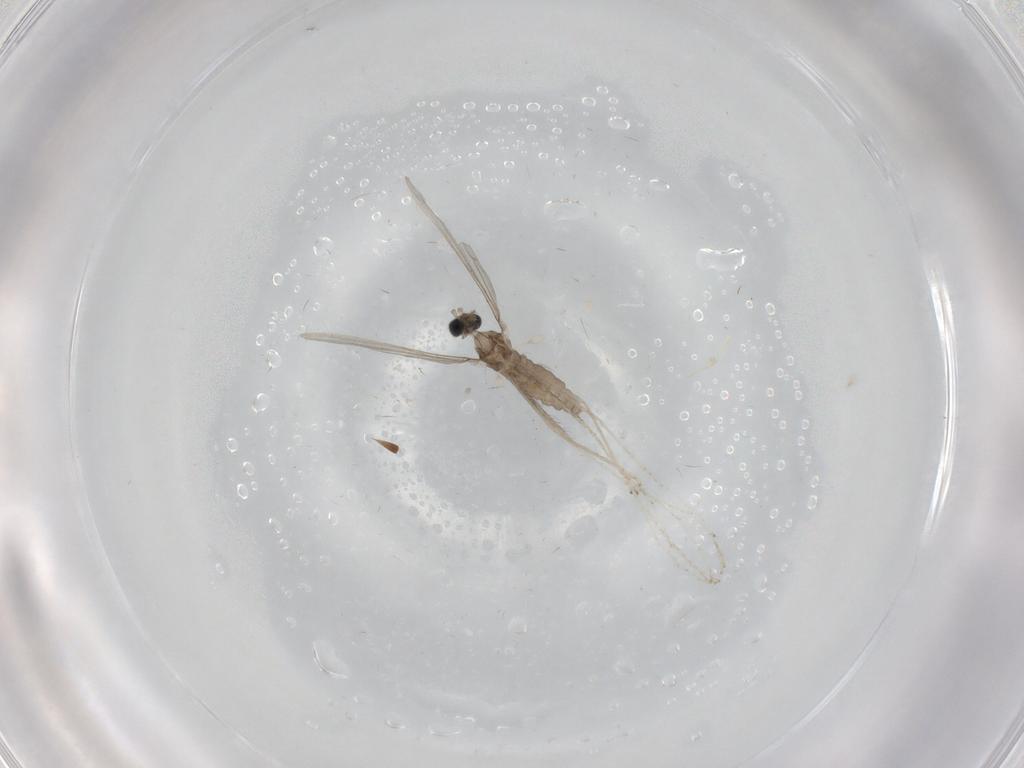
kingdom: Animalia
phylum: Arthropoda
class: Insecta
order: Diptera
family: Cecidomyiidae
